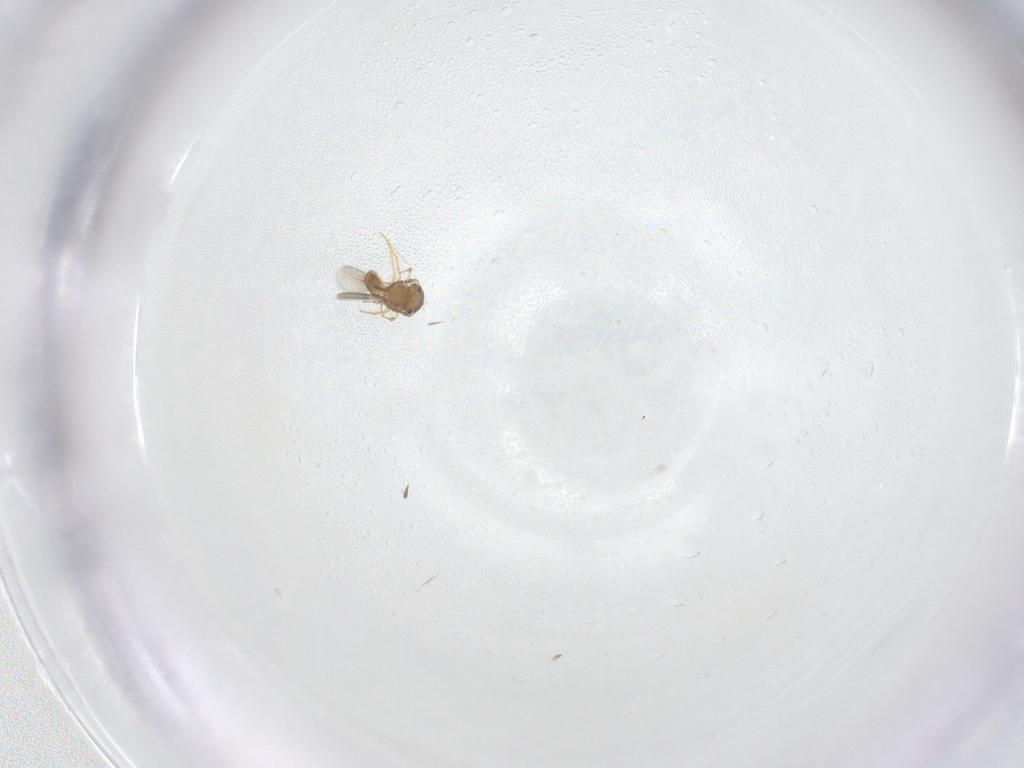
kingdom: Animalia
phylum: Arthropoda
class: Insecta
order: Hymenoptera
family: Scelionidae
